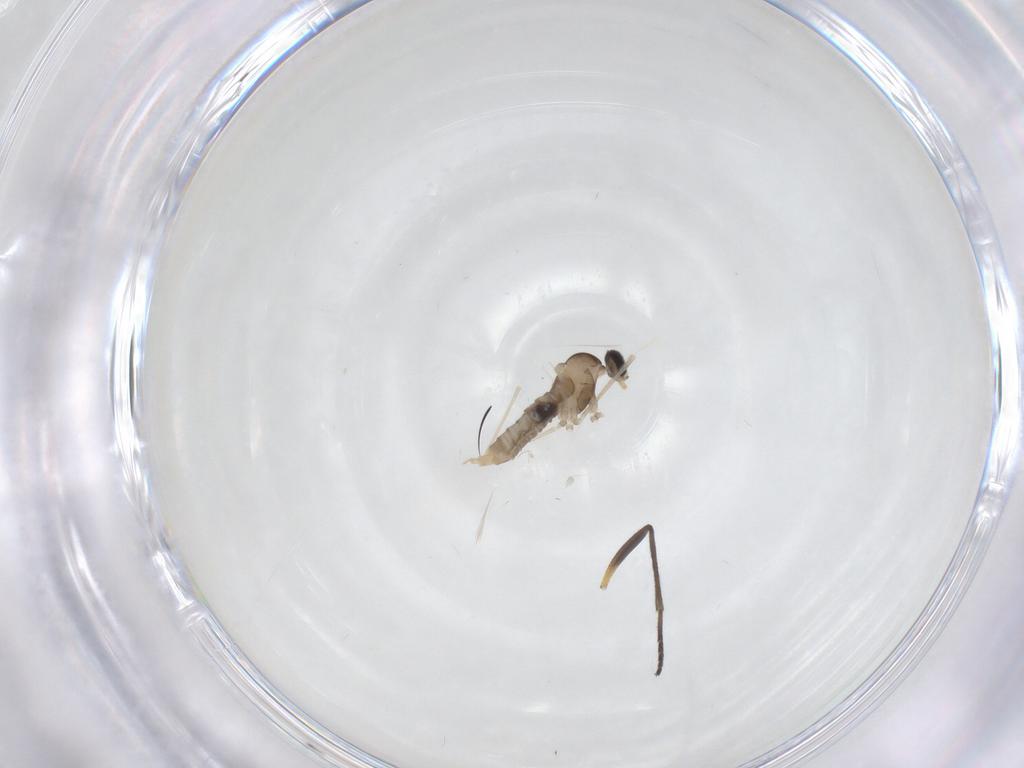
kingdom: Animalia
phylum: Arthropoda
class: Insecta
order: Diptera
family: Cecidomyiidae
